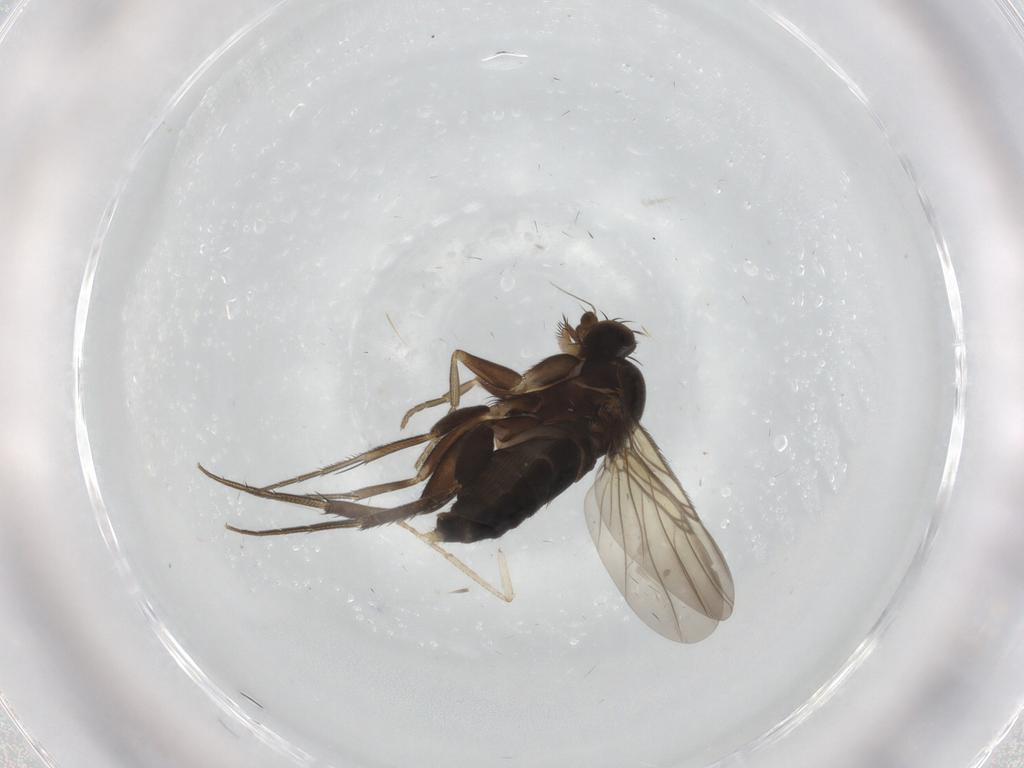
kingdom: Animalia
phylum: Arthropoda
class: Insecta
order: Diptera
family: Psychodidae
